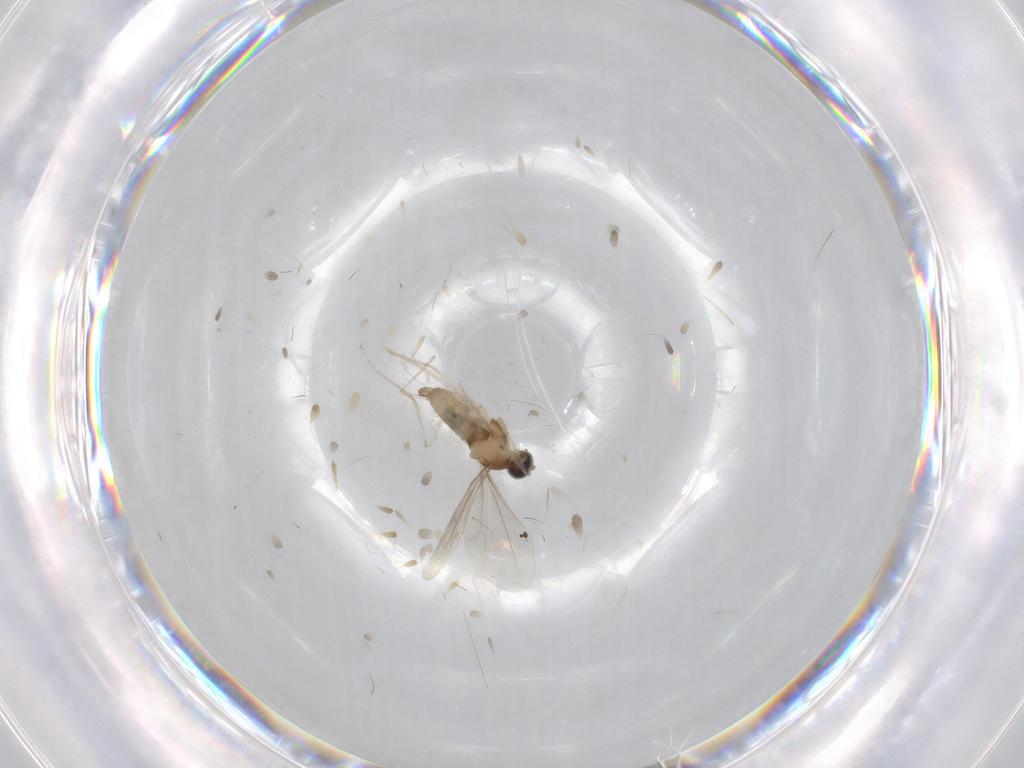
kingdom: Animalia
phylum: Arthropoda
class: Insecta
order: Diptera
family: Cecidomyiidae
